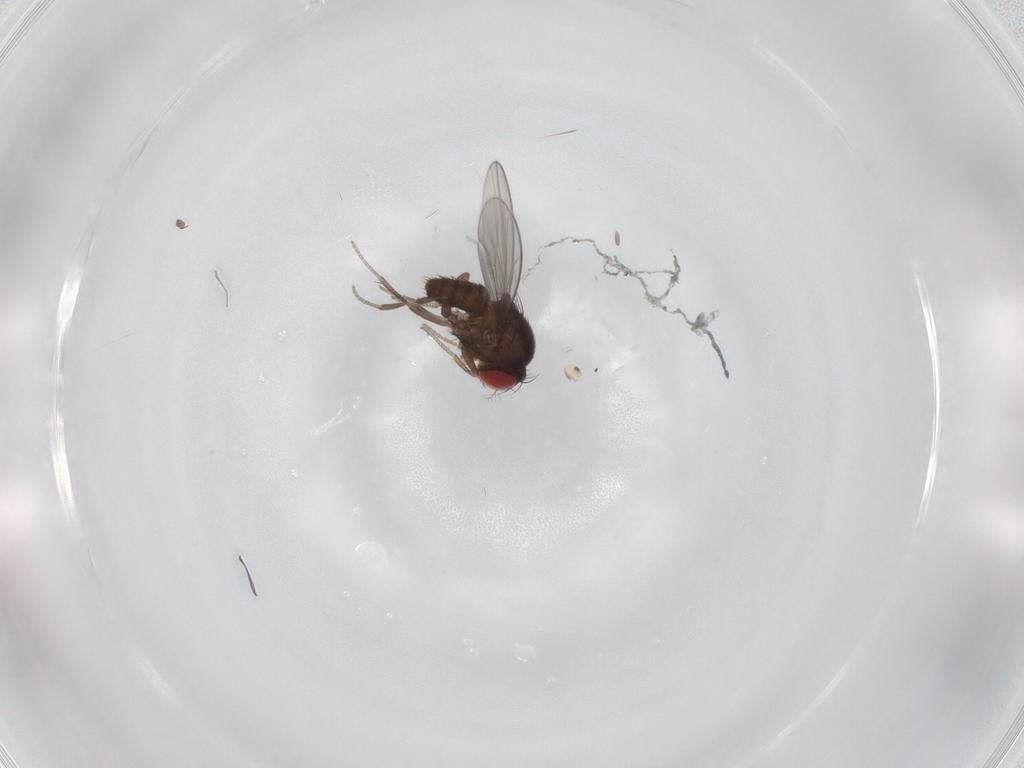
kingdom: Animalia
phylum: Arthropoda
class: Insecta
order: Diptera
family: Drosophilidae
